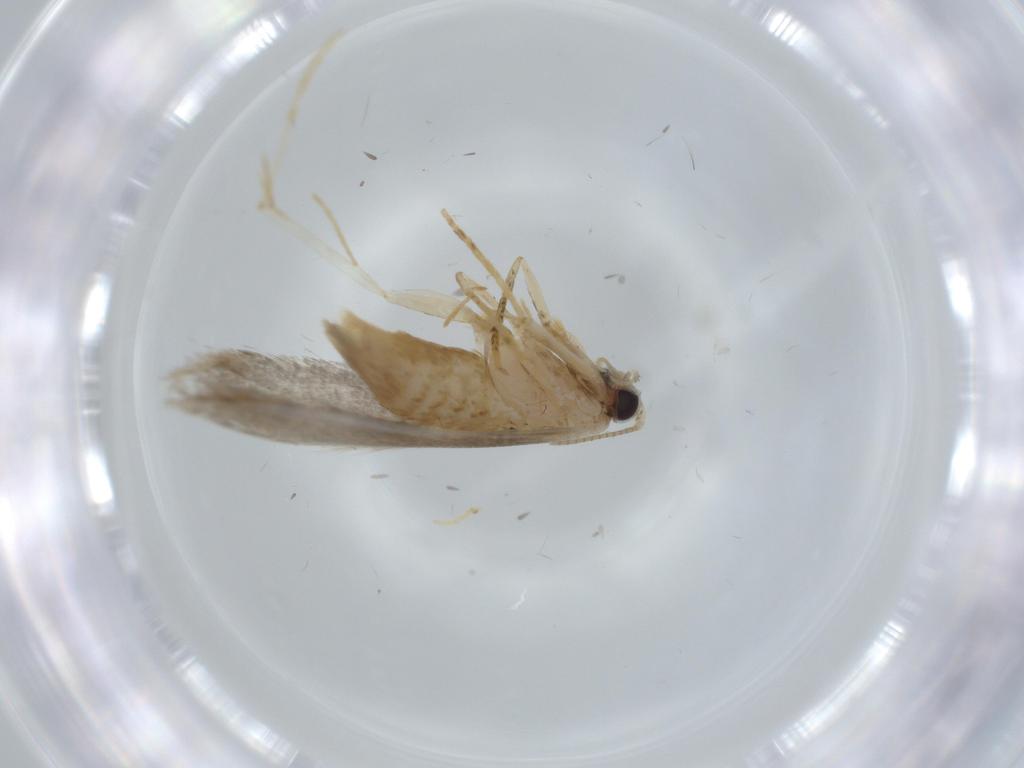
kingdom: Animalia
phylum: Arthropoda
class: Insecta
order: Lepidoptera
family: Tineidae
